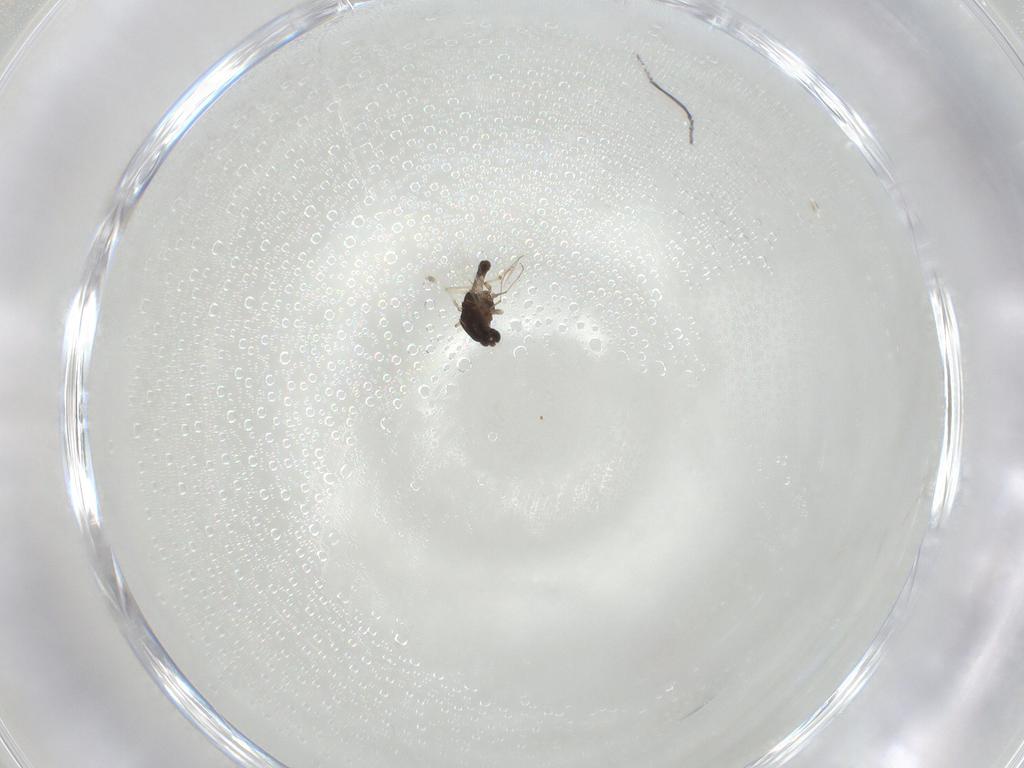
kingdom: Animalia
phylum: Arthropoda
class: Insecta
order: Diptera
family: Chironomidae
